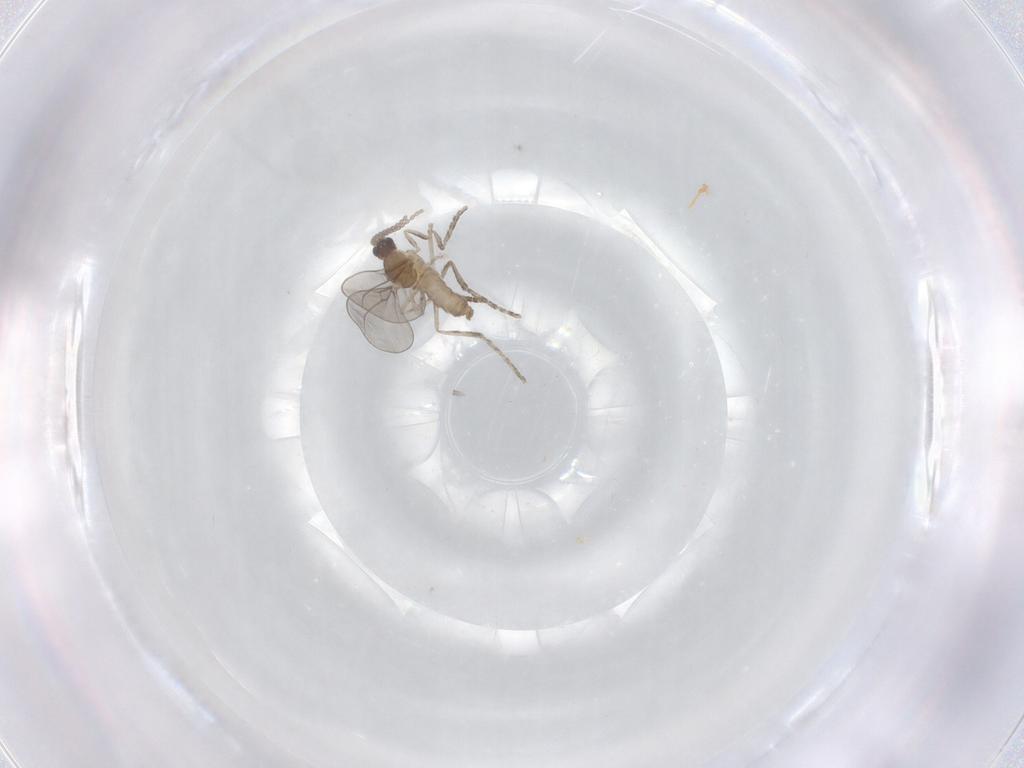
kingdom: Animalia
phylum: Arthropoda
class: Insecta
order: Diptera
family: Cecidomyiidae
